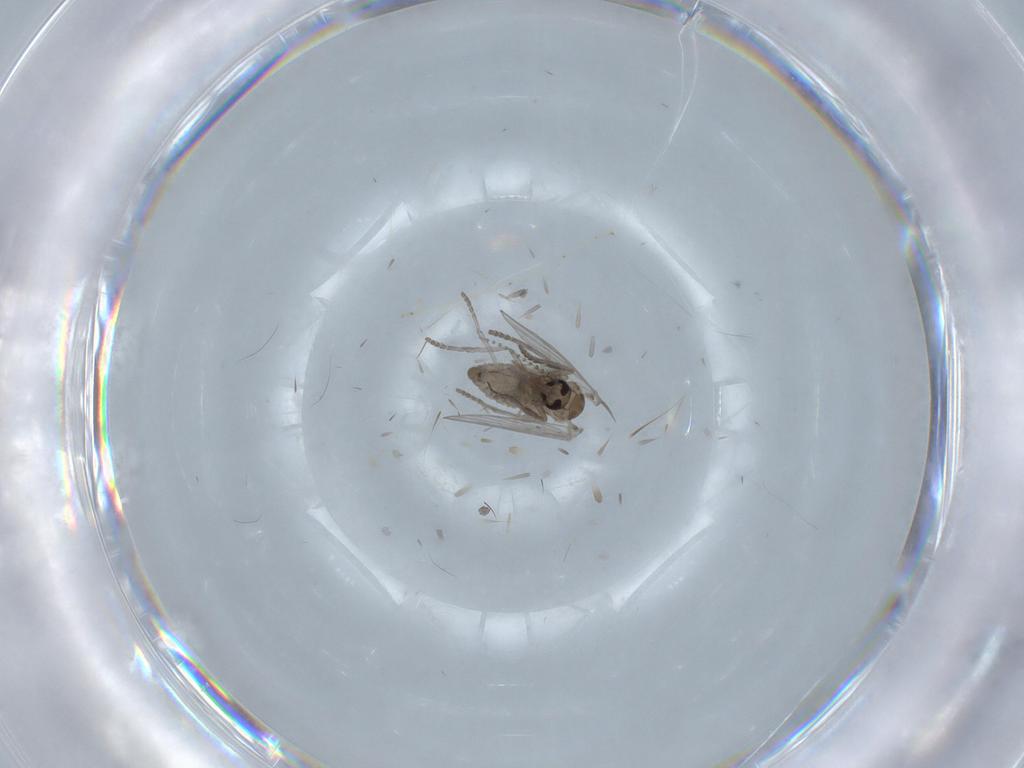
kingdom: Animalia
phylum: Arthropoda
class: Insecta
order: Diptera
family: Psychodidae
